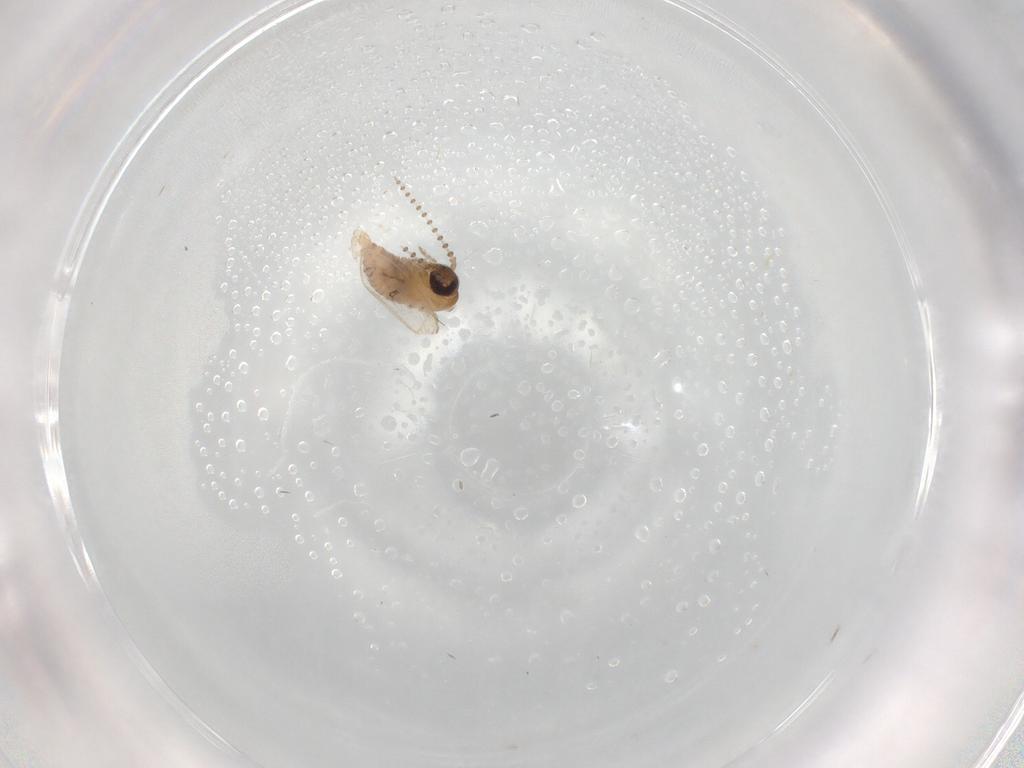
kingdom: Animalia
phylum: Arthropoda
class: Insecta
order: Diptera
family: Psychodidae
